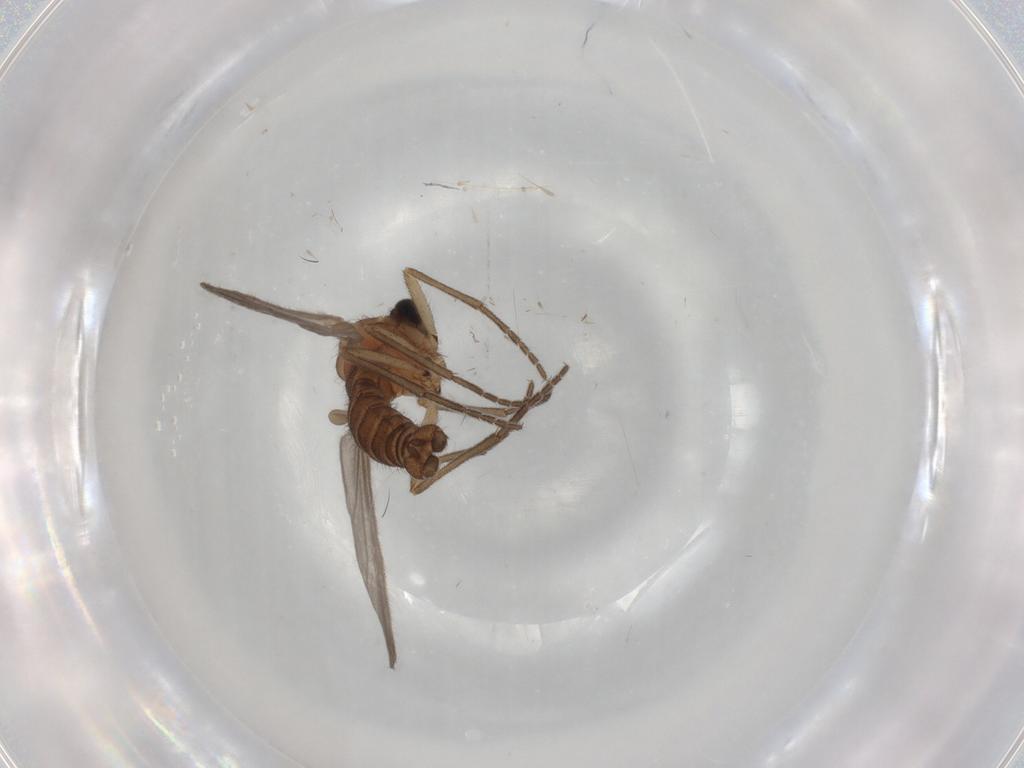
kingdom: Animalia
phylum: Arthropoda
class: Insecta
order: Diptera
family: Sciaridae
